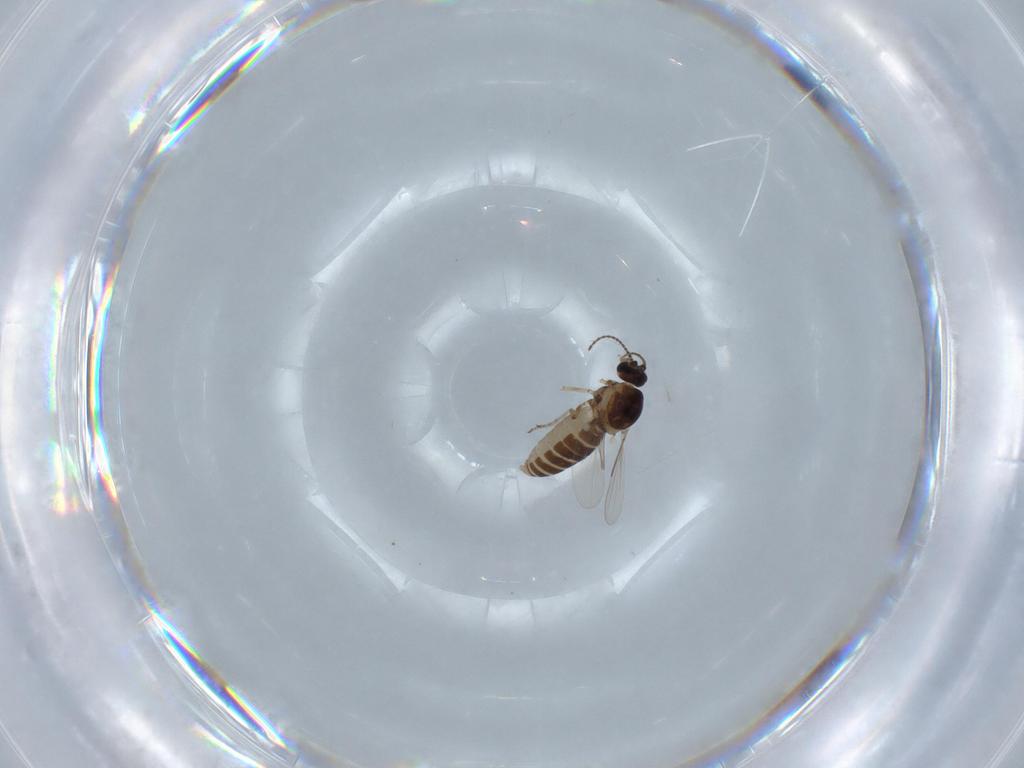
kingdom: Animalia
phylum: Arthropoda
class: Insecta
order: Diptera
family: Ceratopogonidae
